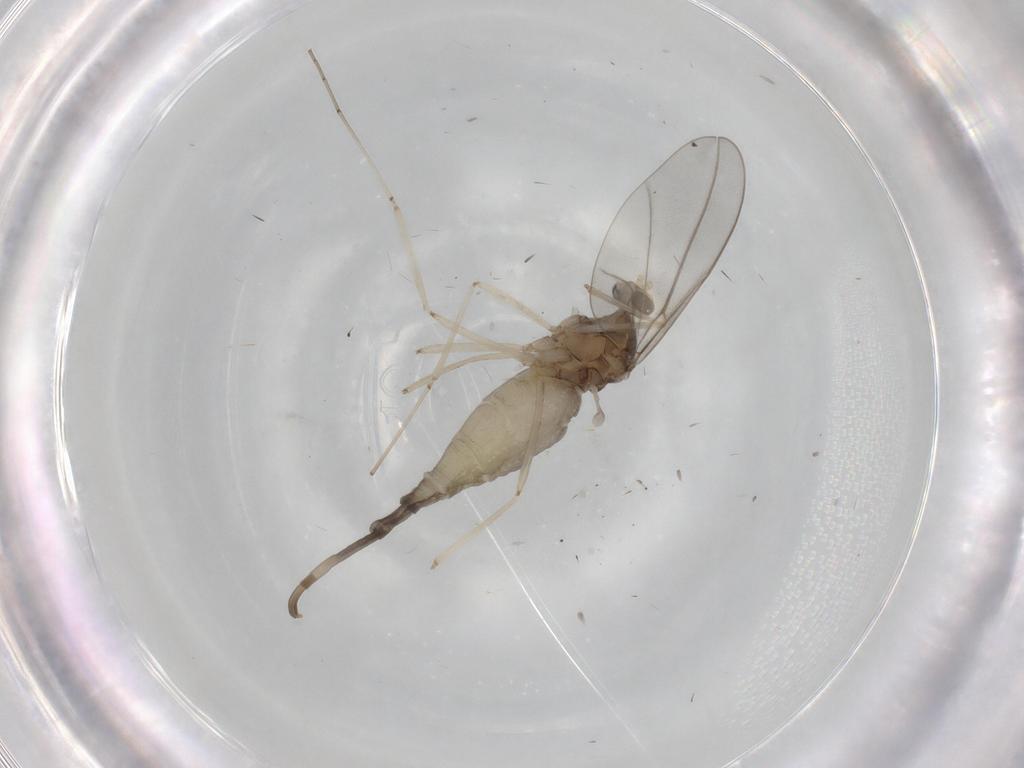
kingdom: Animalia
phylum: Arthropoda
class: Insecta
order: Diptera
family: Cecidomyiidae
